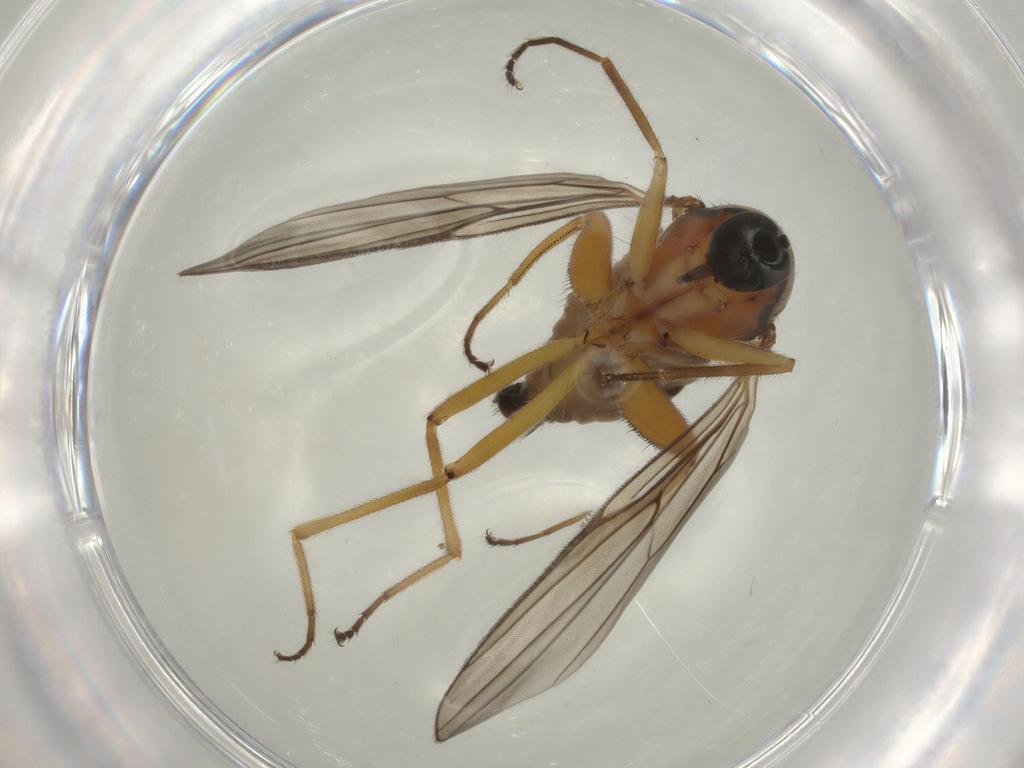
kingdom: Animalia
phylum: Arthropoda
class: Insecta
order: Diptera
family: Hybotidae
